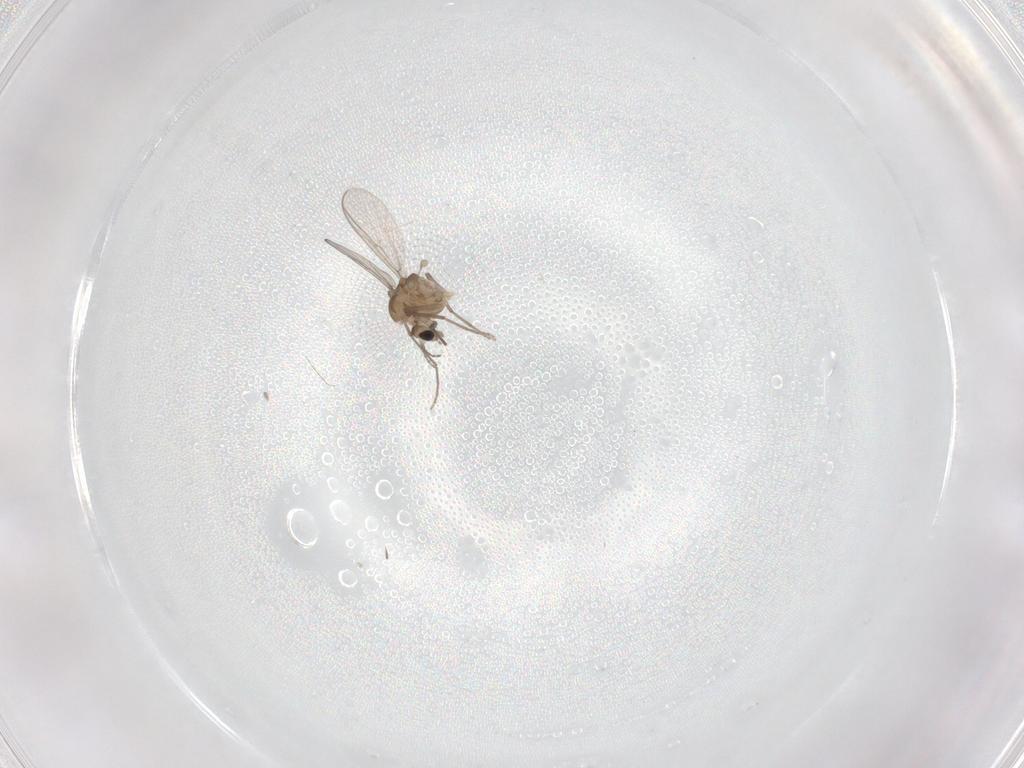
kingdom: Animalia
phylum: Arthropoda
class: Insecta
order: Diptera
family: Chironomidae
